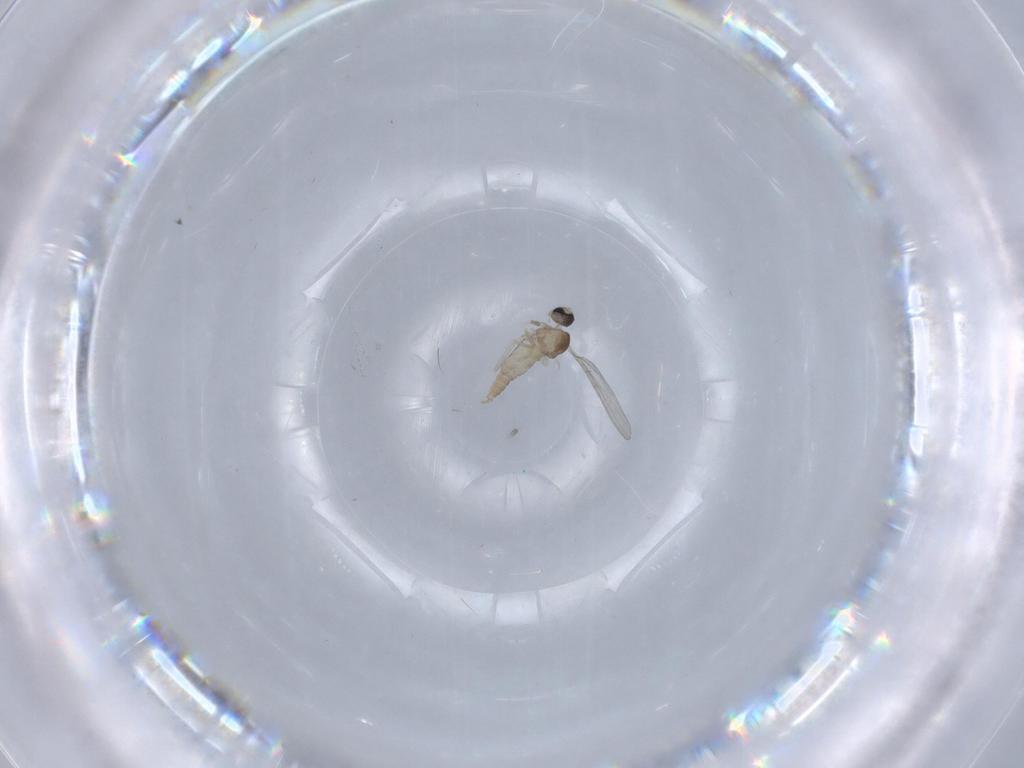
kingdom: Animalia
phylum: Arthropoda
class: Insecta
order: Diptera
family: Cecidomyiidae
